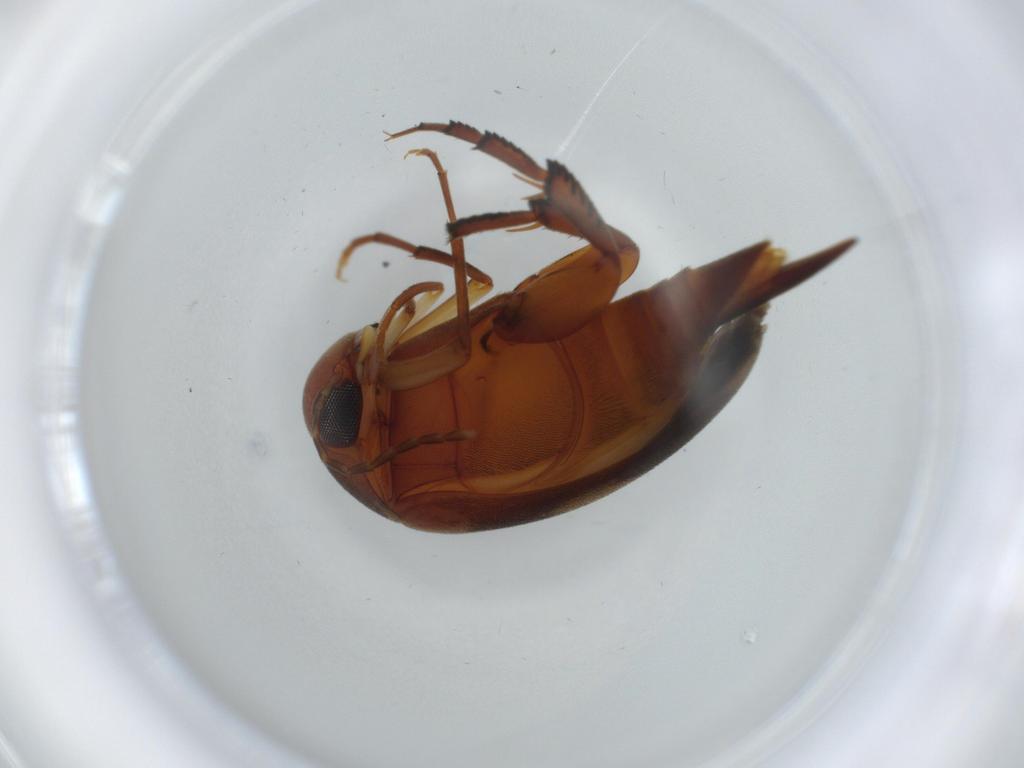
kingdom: Animalia
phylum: Arthropoda
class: Insecta
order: Coleoptera
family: Mordellidae
